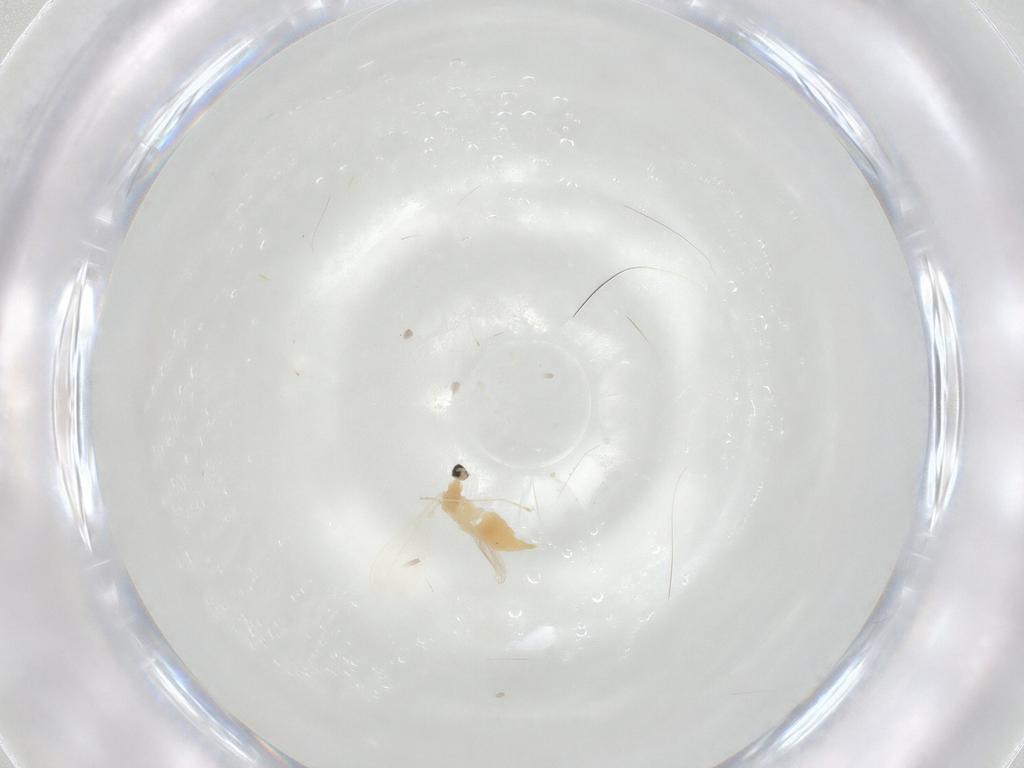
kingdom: Animalia
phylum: Arthropoda
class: Insecta
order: Diptera
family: Cecidomyiidae
